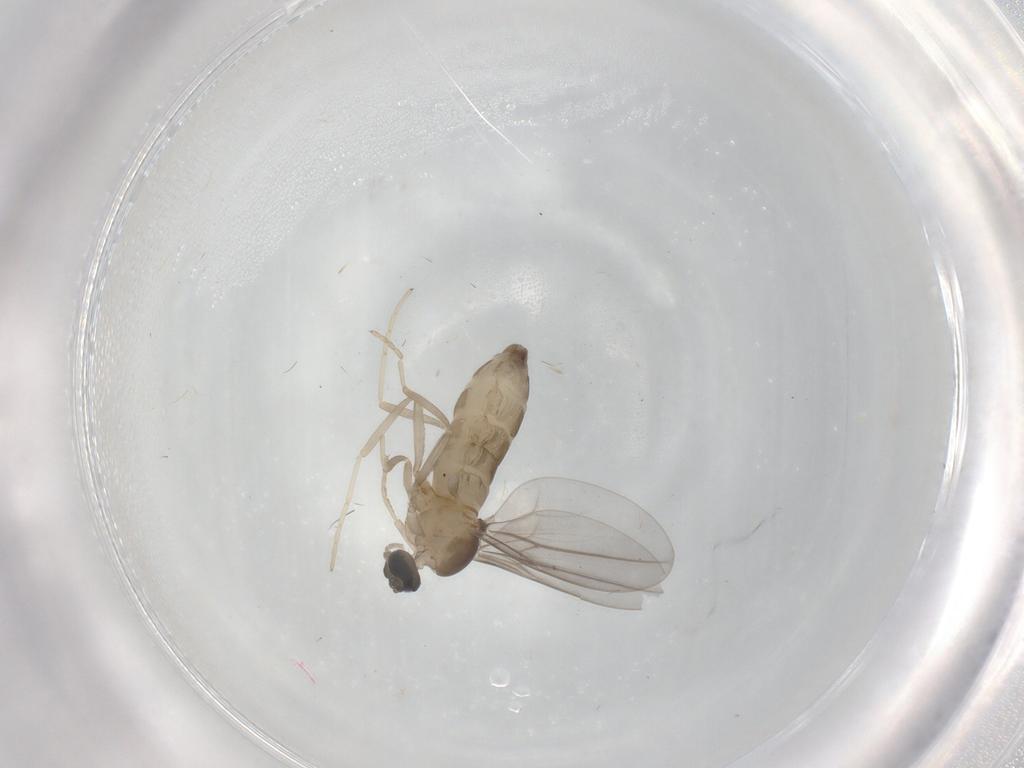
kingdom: Animalia
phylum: Arthropoda
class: Insecta
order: Diptera
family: Cecidomyiidae
